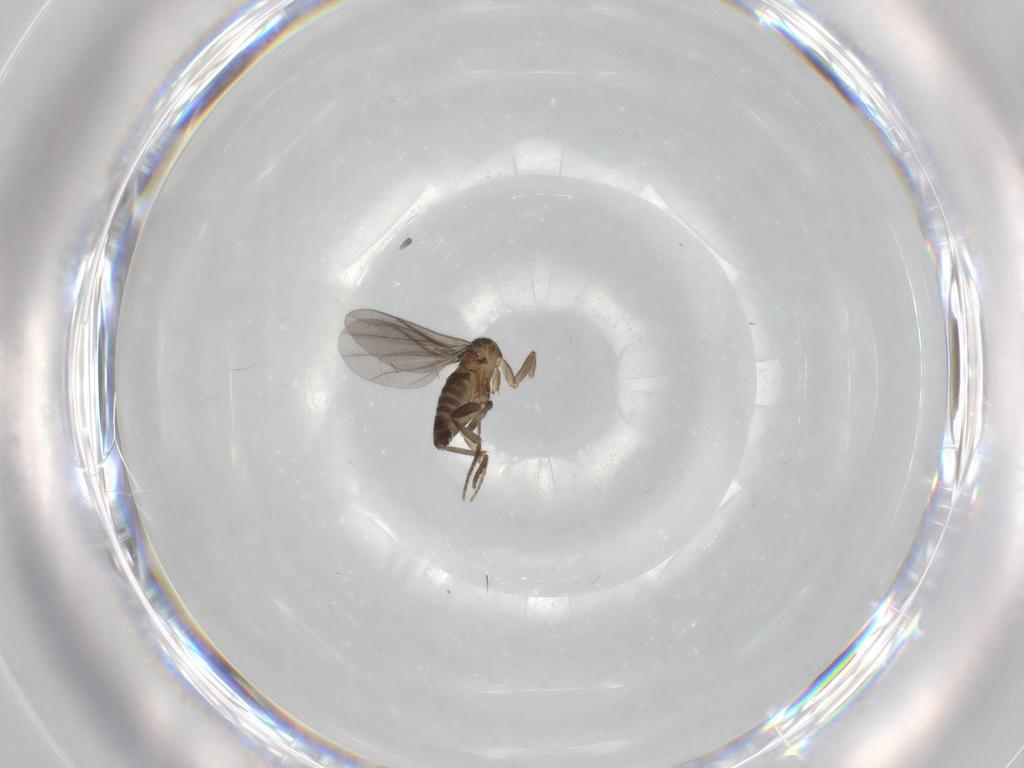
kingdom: Animalia
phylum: Arthropoda
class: Insecta
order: Diptera
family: Phoridae
